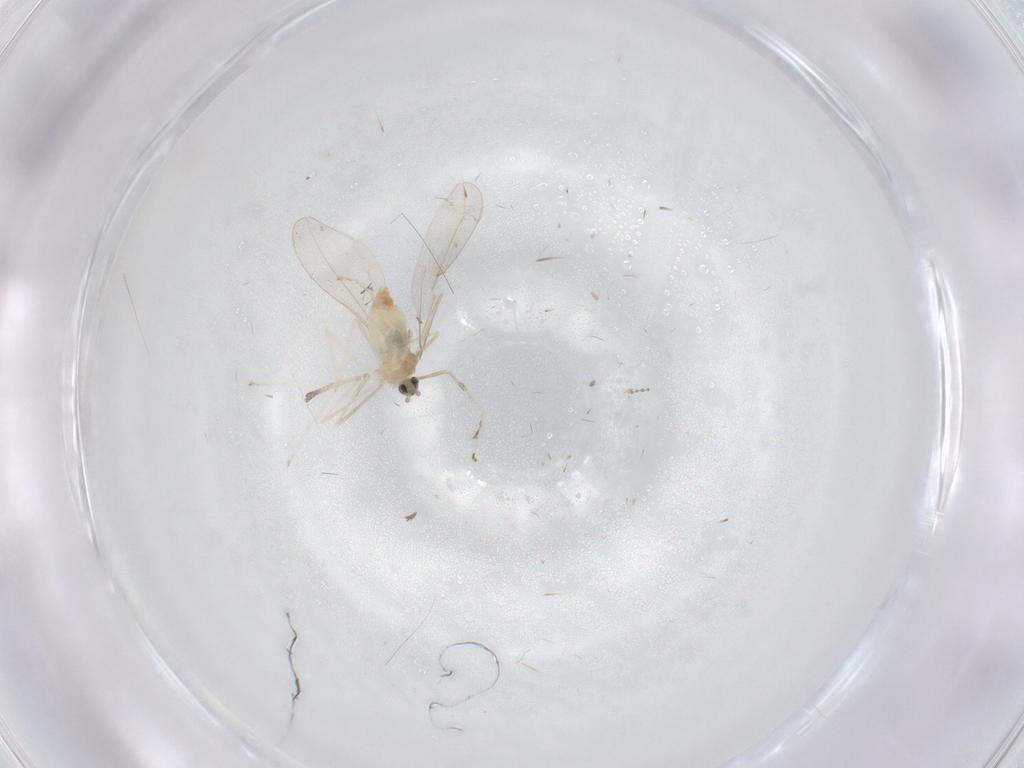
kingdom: Animalia
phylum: Arthropoda
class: Insecta
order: Diptera
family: Cecidomyiidae
